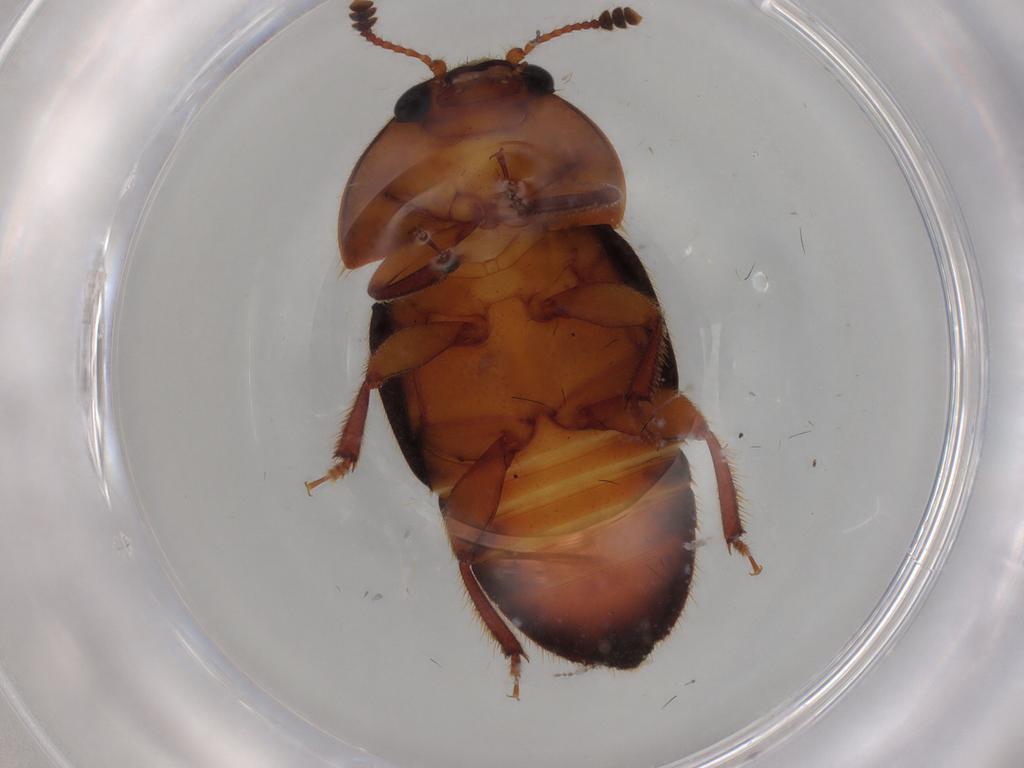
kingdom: Animalia
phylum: Arthropoda
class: Insecta
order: Coleoptera
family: Nitidulidae
